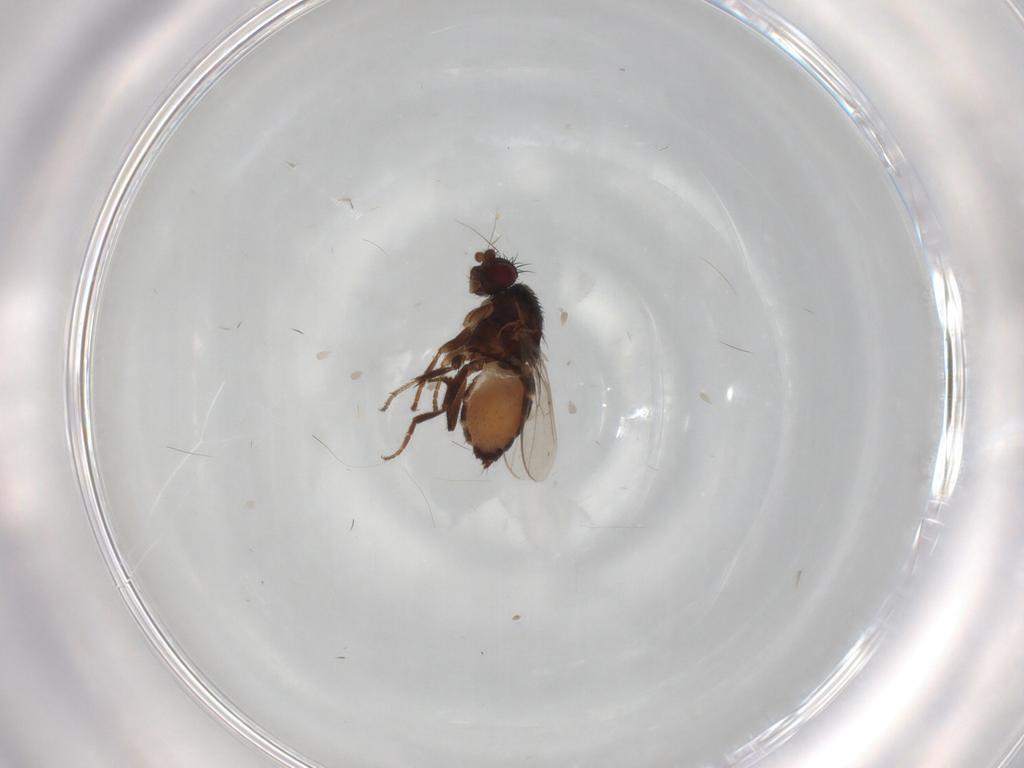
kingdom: Animalia
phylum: Arthropoda
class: Insecta
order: Diptera
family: Sphaeroceridae
